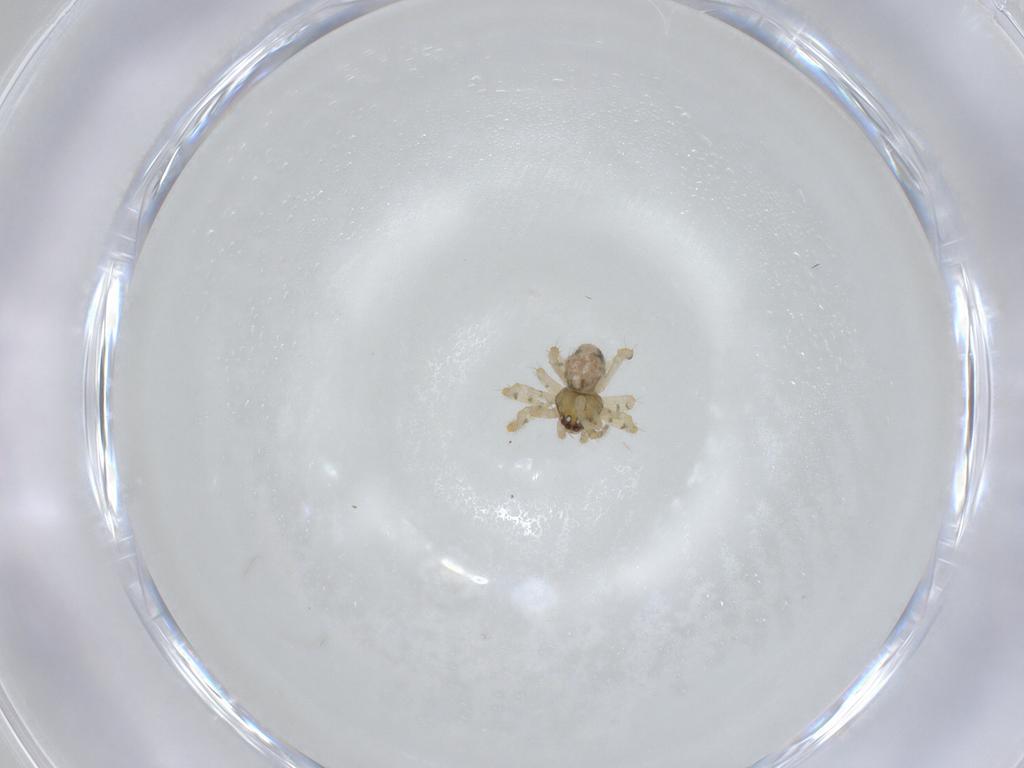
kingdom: Animalia
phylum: Arthropoda
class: Arachnida
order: Araneae
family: Theridiidae
